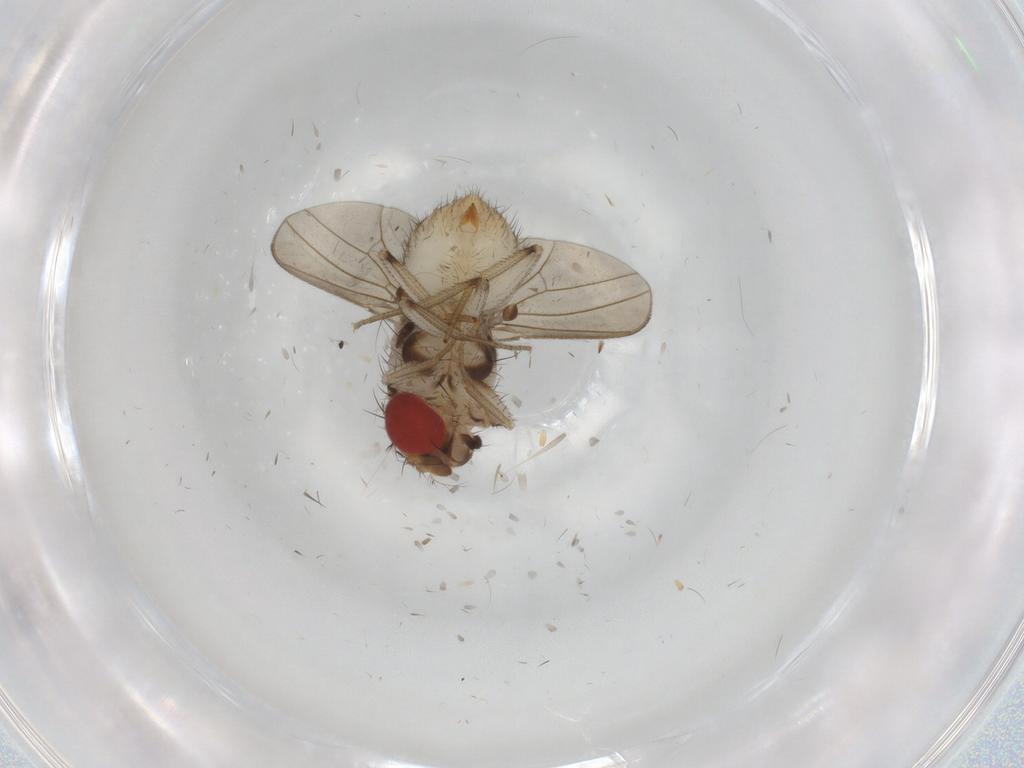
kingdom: Animalia
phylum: Arthropoda
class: Insecta
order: Diptera
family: Drosophilidae
